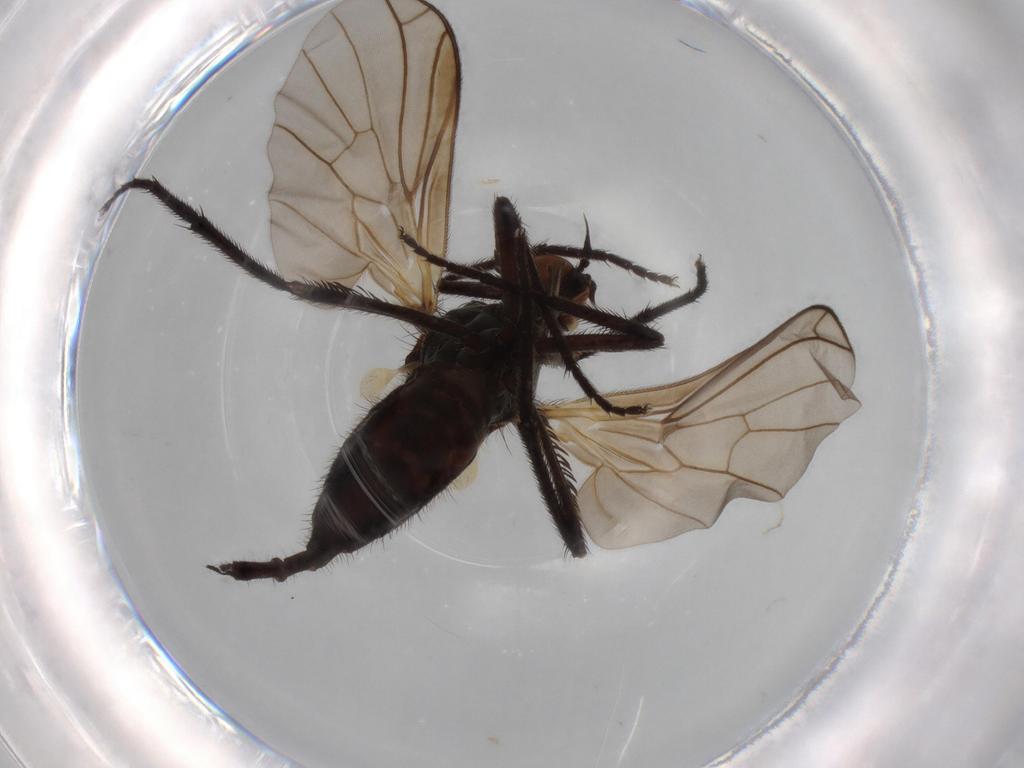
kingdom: Animalia
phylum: Arthropoda
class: Insecta
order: Diptera
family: Empididae
